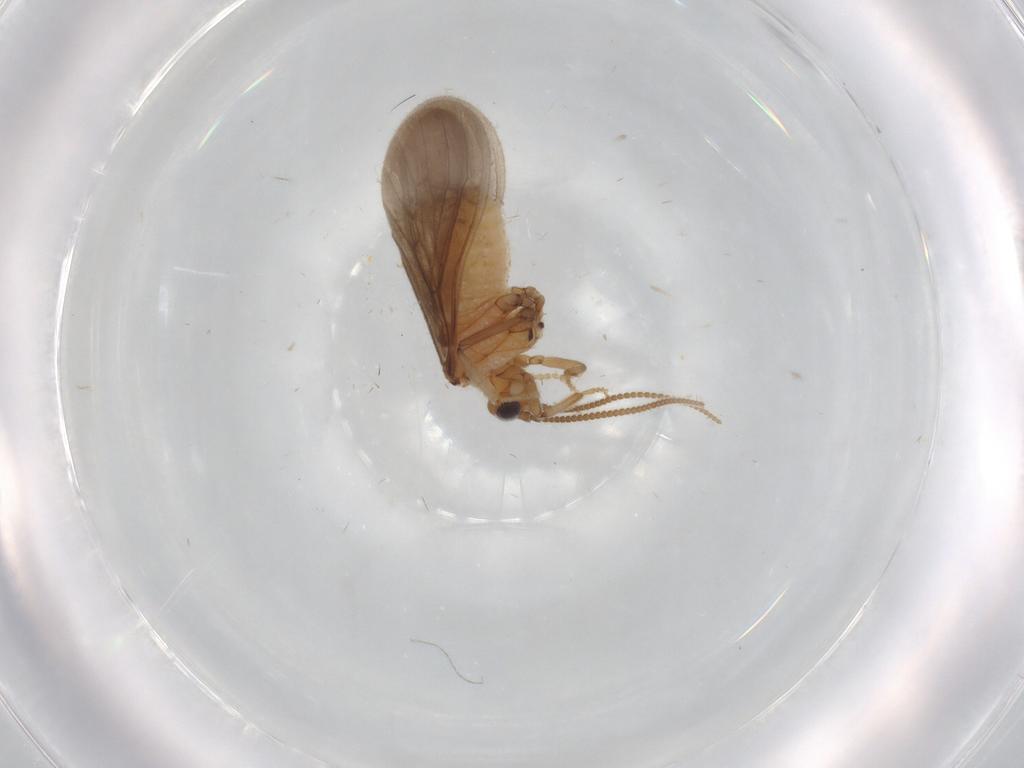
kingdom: Animalia
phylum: Arthropoda
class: Insecta
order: Neuroptera
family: Coniopterygidae
